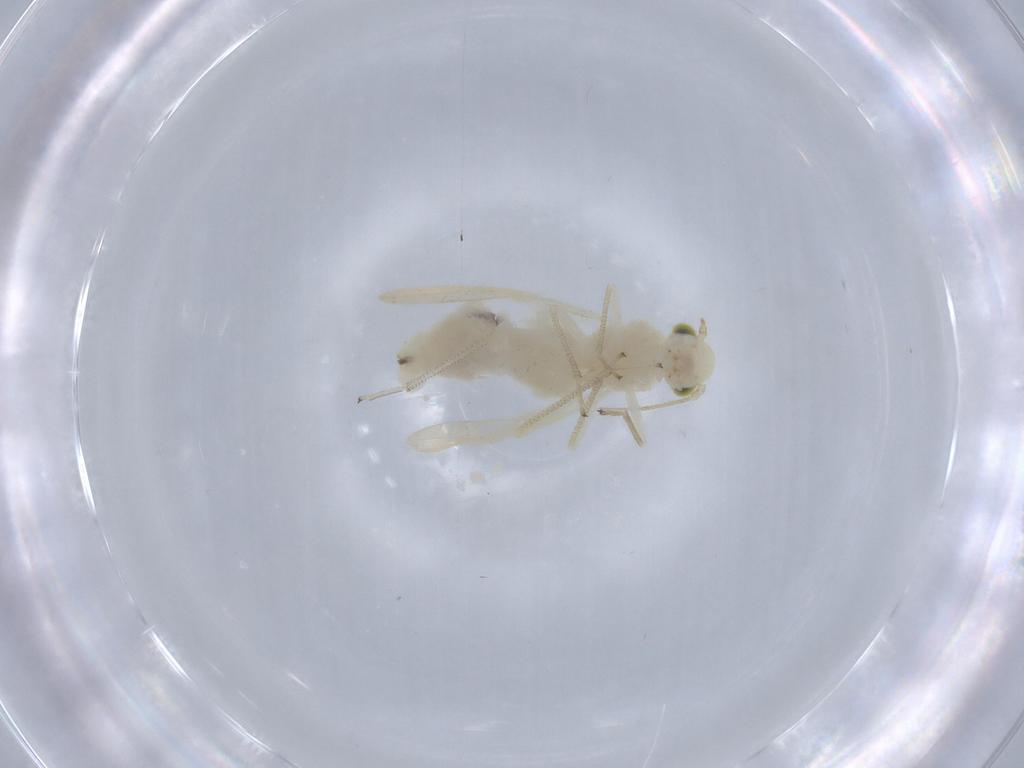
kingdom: Animalia
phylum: Arthropoda
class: Insecta
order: Psocodea
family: Caeciliusidae
